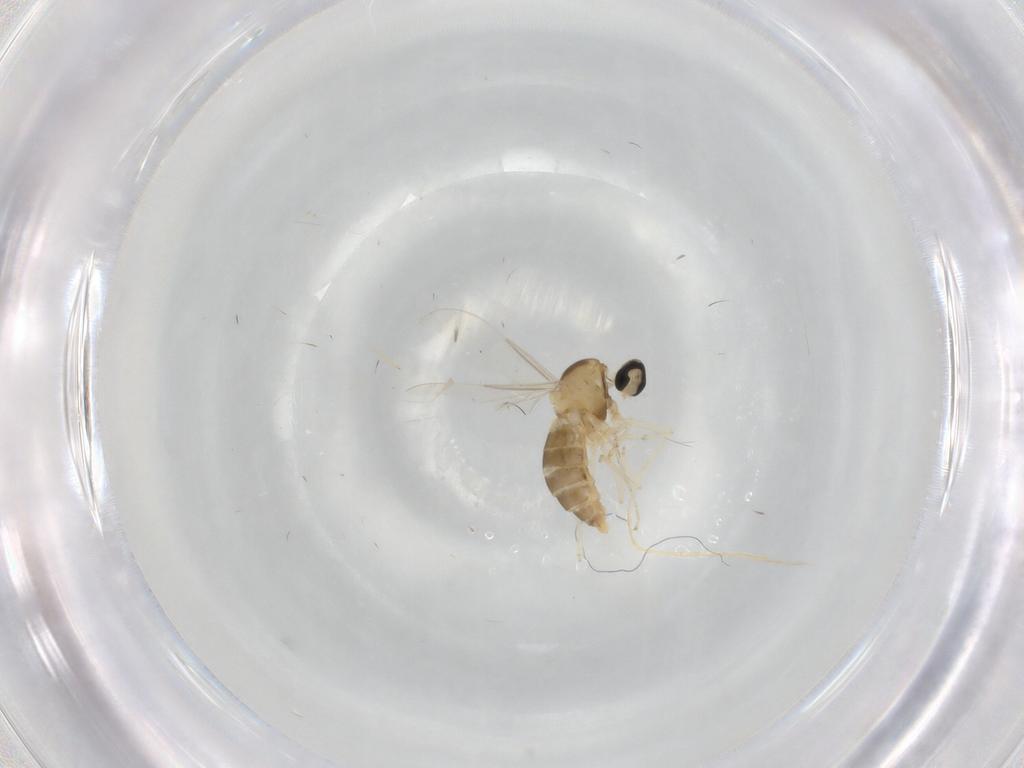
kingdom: Animalia
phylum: Arthropoda
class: Insecta
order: Diptera
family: Cecidomyiidae
